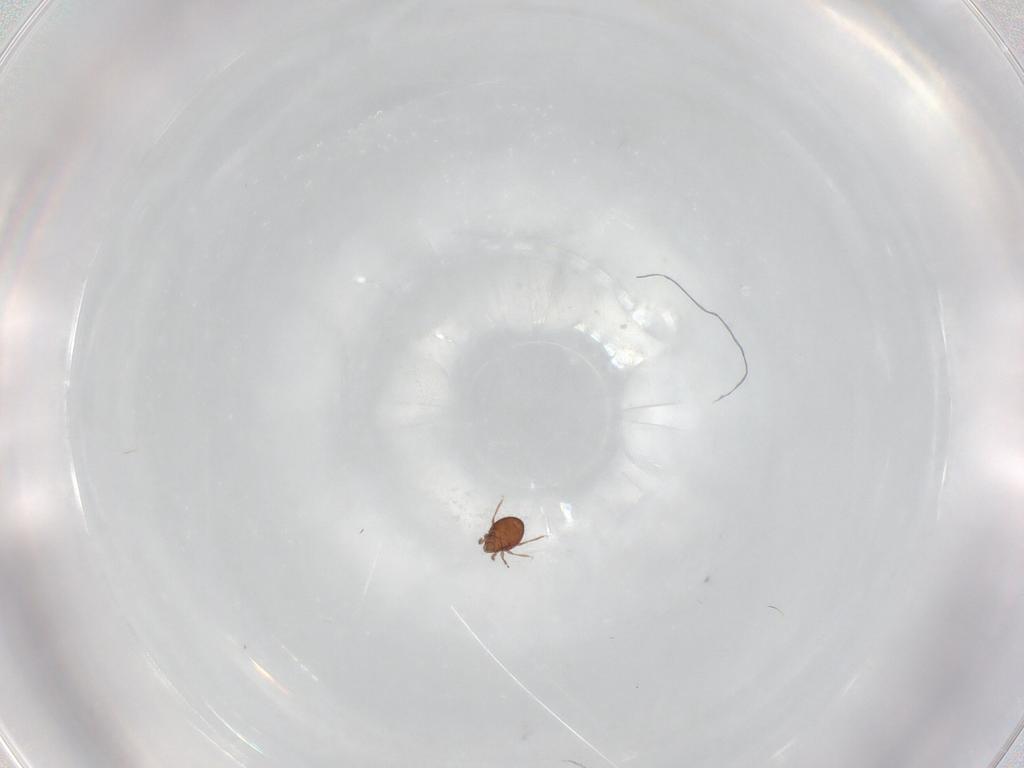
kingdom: Animalia
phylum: Arthropoda
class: Arachnida
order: Sarcoptiformes
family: Oribatulidae
